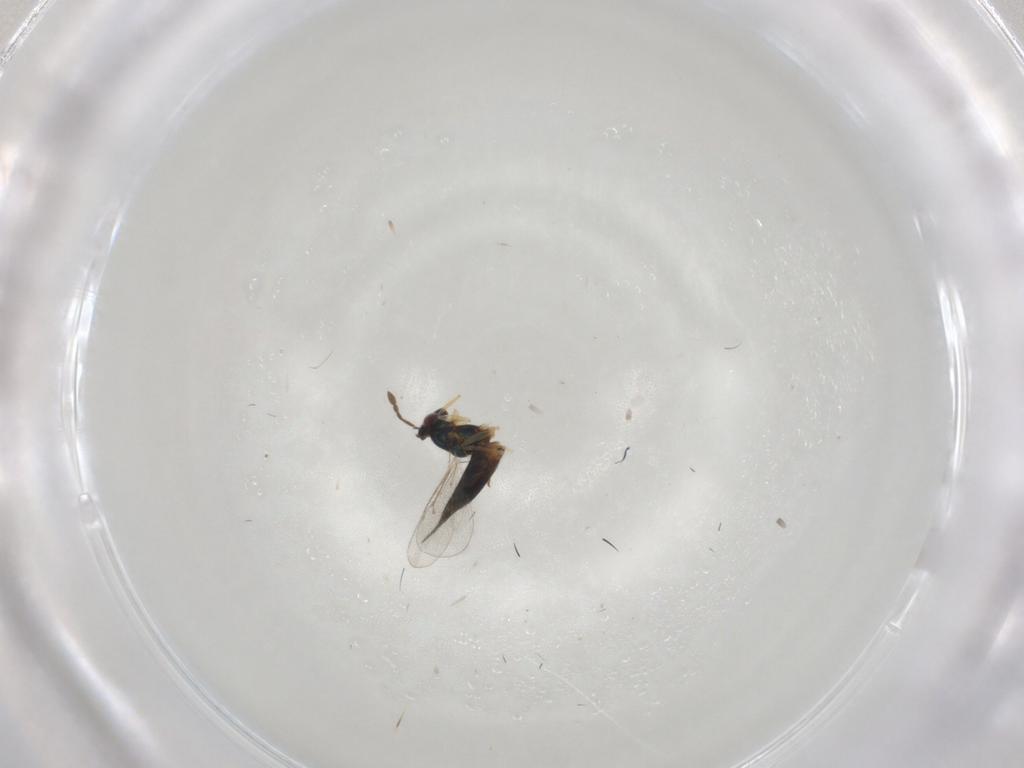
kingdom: Animalia
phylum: Arthropoda
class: Insecta
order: Hymenoptera
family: Eulophidae
